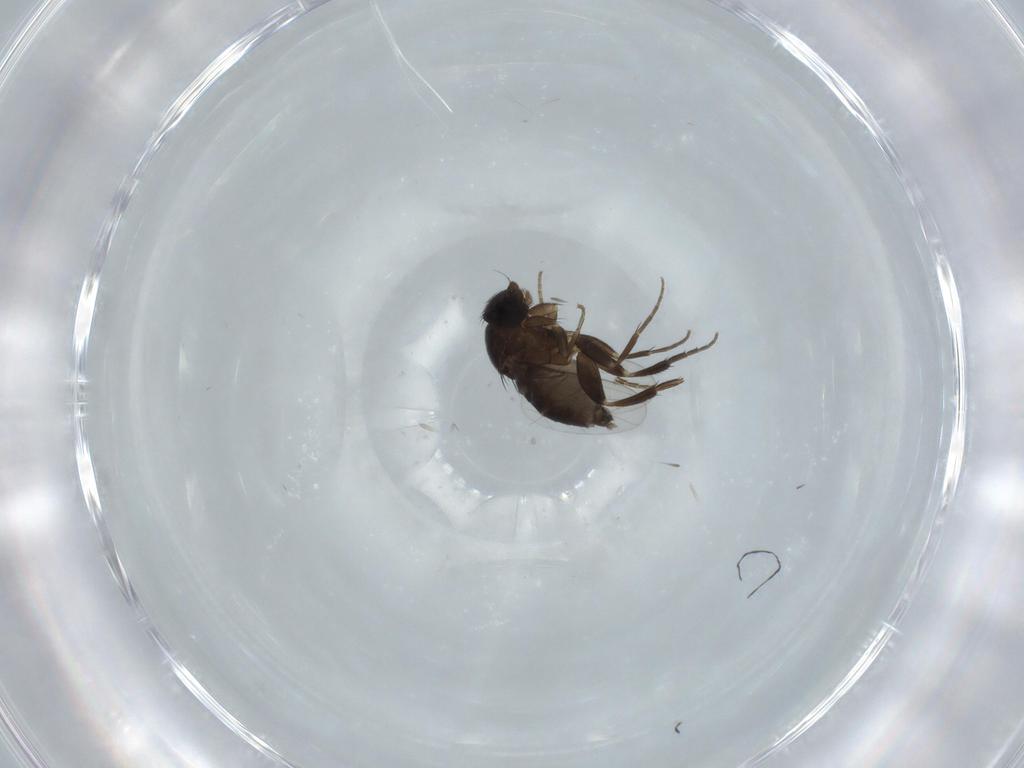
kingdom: Animalia
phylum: Arthropoda
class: Insecta
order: Diptera
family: Phoridae
